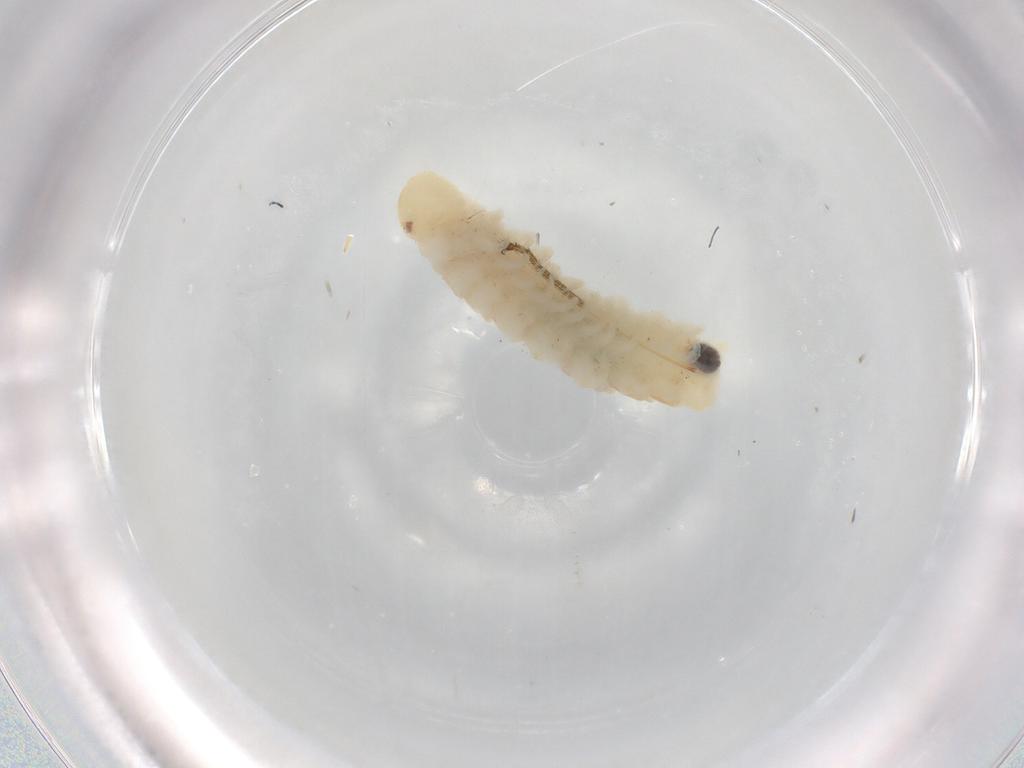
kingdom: Animalia
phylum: Arthropoda
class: Diplopoda
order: Polyxenida
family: Polyxenidae
